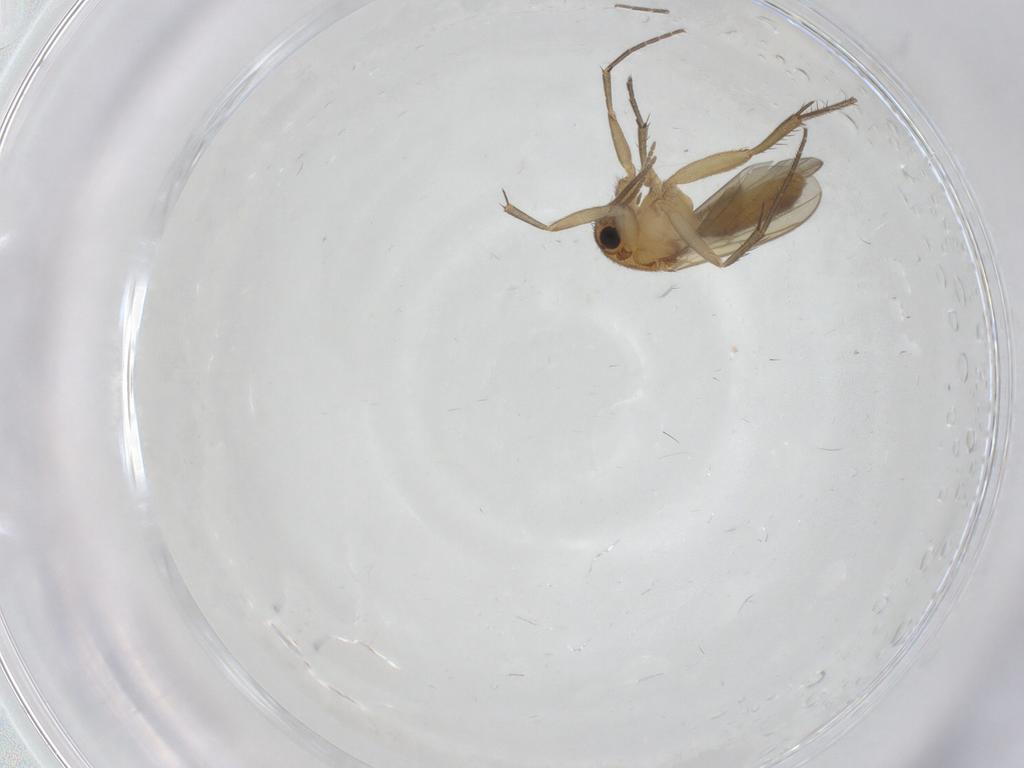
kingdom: Animalia
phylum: Arthropoda
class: Insecta
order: Diptera
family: Mycetophilidae
